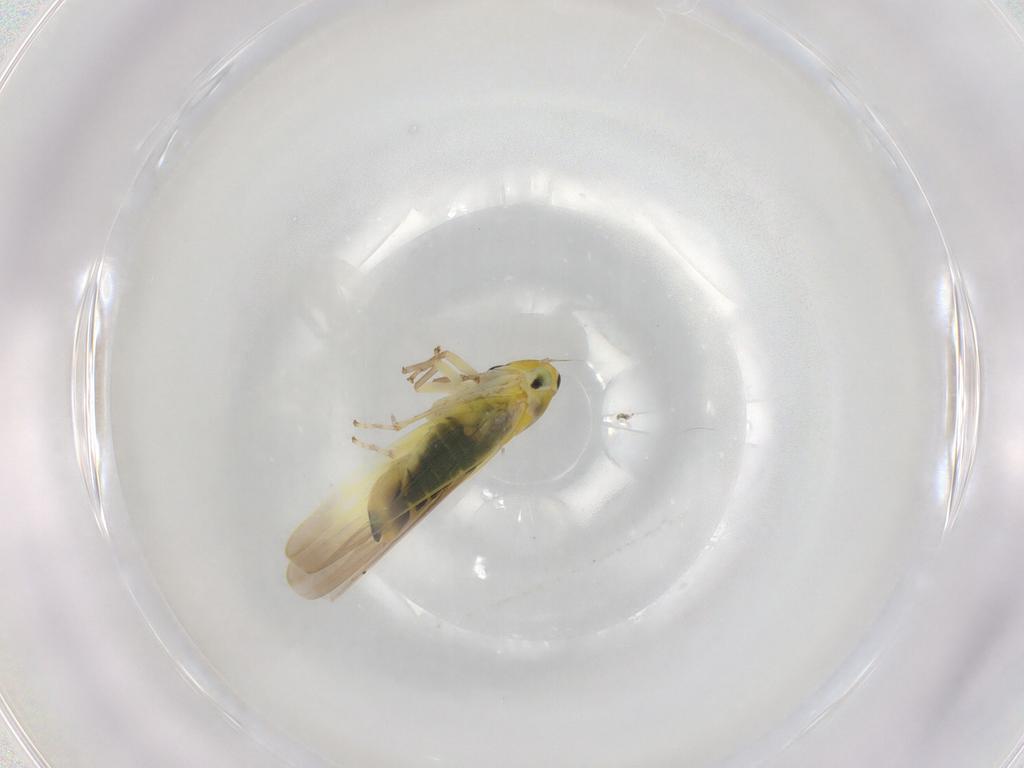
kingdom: Animalia
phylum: Arthropoda
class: Insecta
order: Hemiptera
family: Cicadellidae
